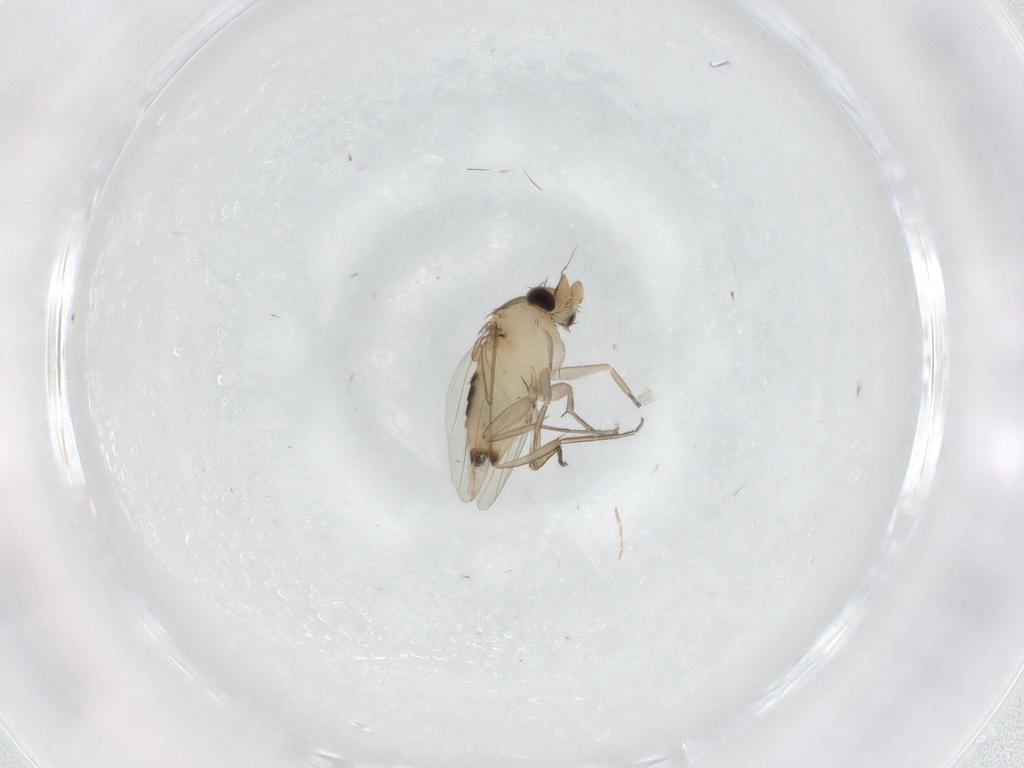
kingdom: Animalia
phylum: Arthropoda
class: Insecta
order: Diptera
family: Phoridae
